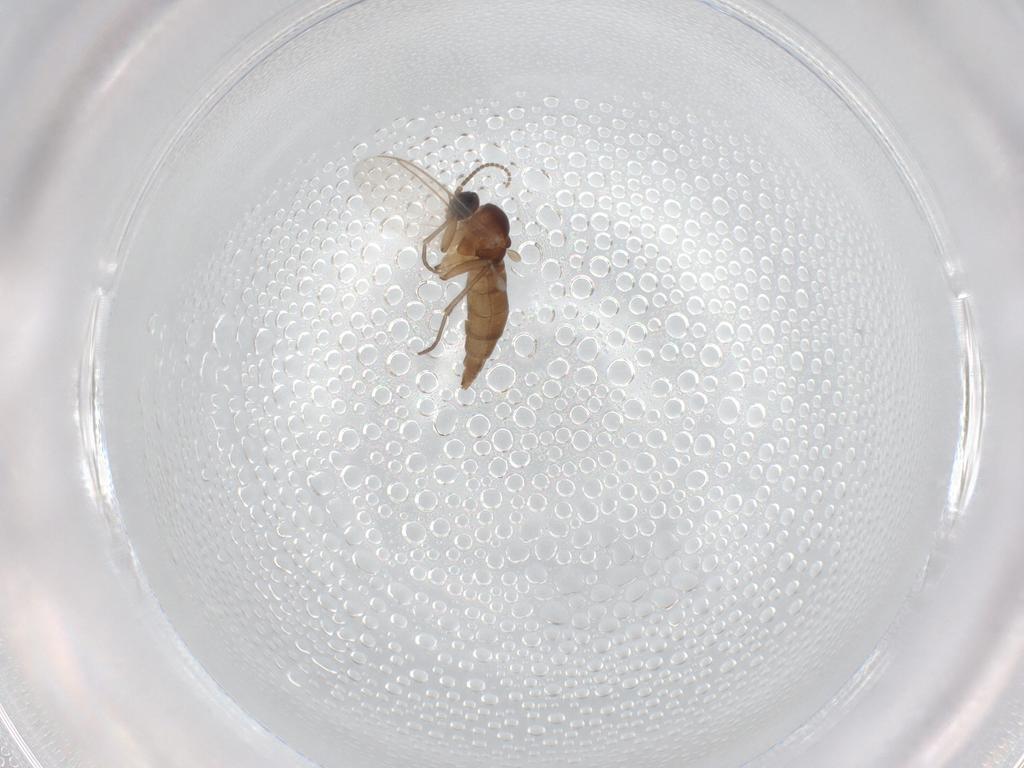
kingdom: Animalia
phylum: Arthropoda
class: Insecta
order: Diptera
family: Sciaridae
